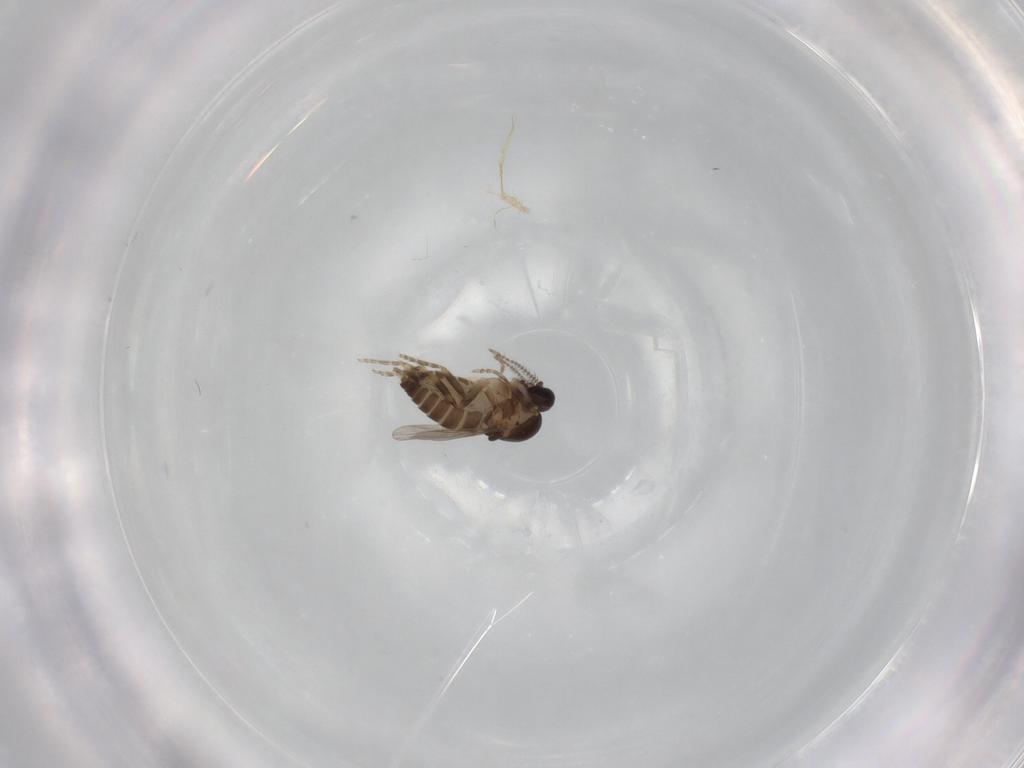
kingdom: Animalia
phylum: Arthropoda
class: Insecta
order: Diptera
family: Ceratopogonidae
